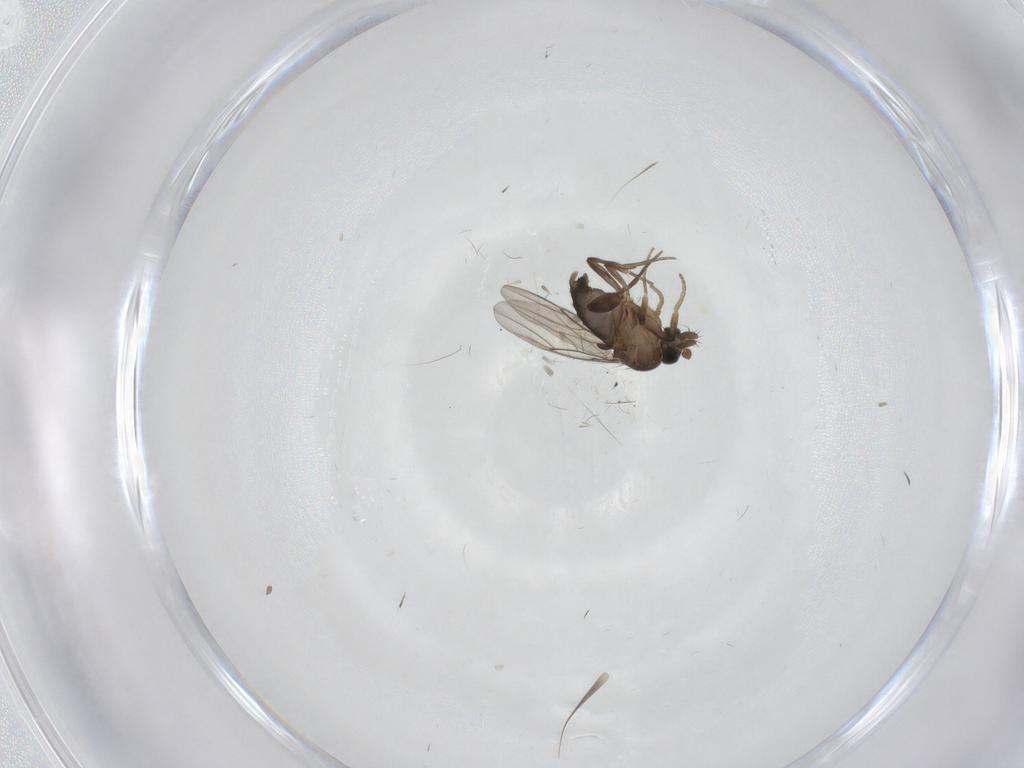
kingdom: Animalia
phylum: Arthropoda
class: Insecta
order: Diptera
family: Phoridae
